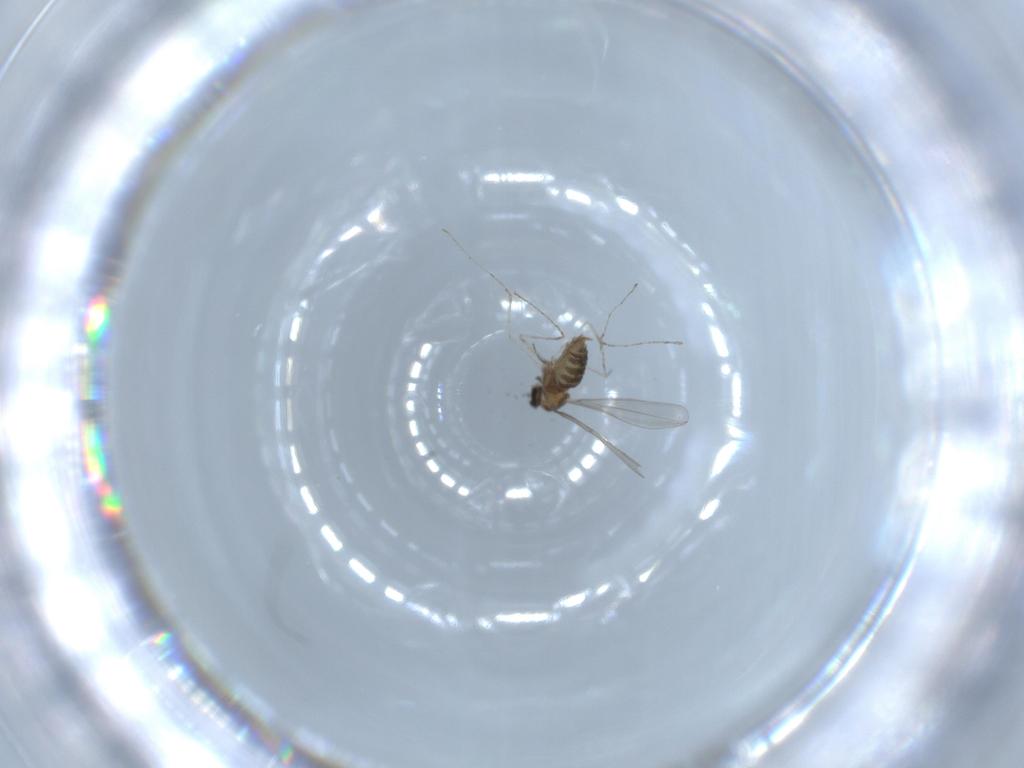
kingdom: Animalia
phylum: Arthropoda
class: Insecta
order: Diptera
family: Cecidomyiidae
